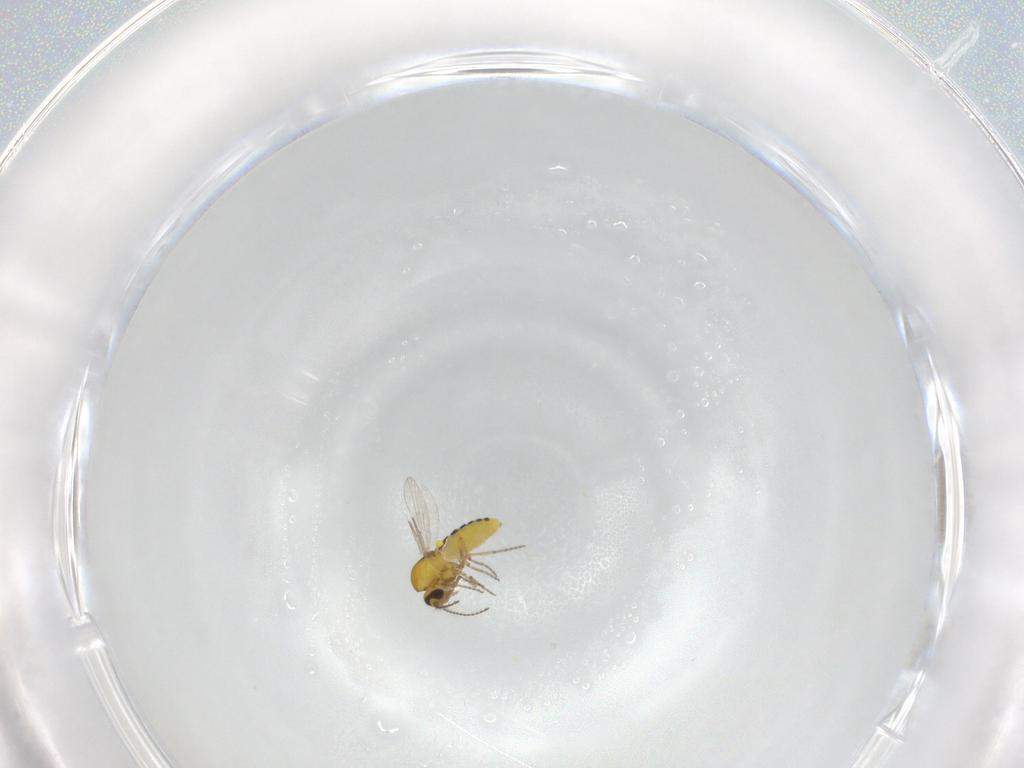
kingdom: Animalia
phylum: Arthropoda
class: Insecta
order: Diptera
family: Ceratopogonidae
